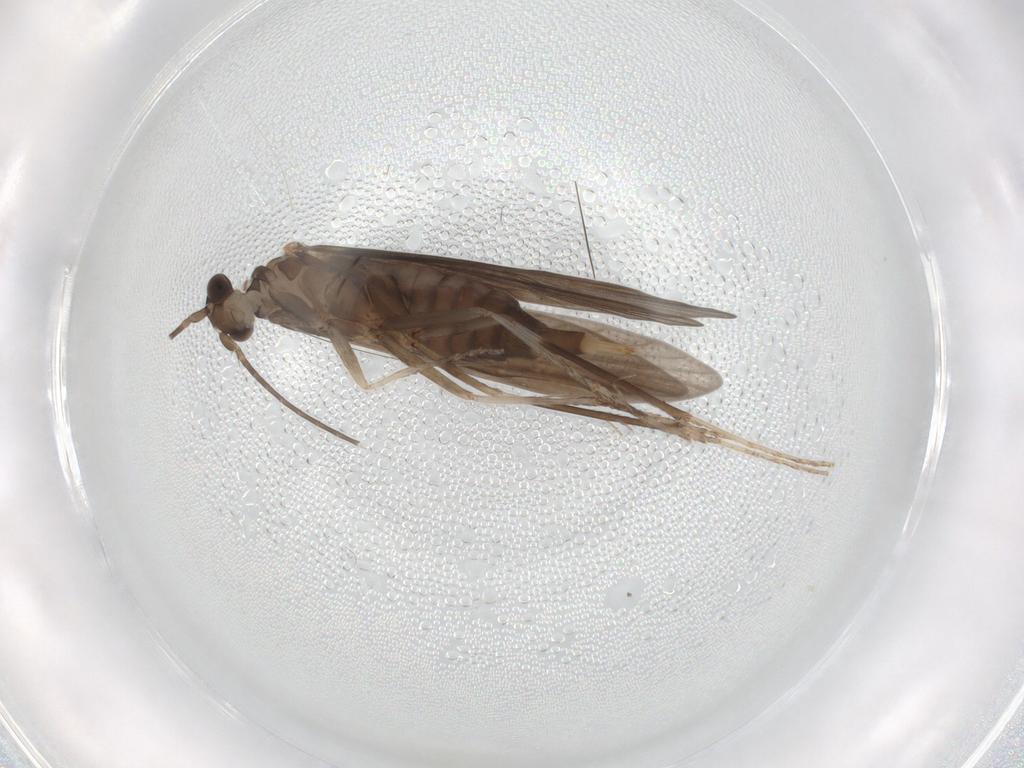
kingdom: Animalia
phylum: Arthropoda
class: Insecta
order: Trichoptera
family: Xiphocentronidae
